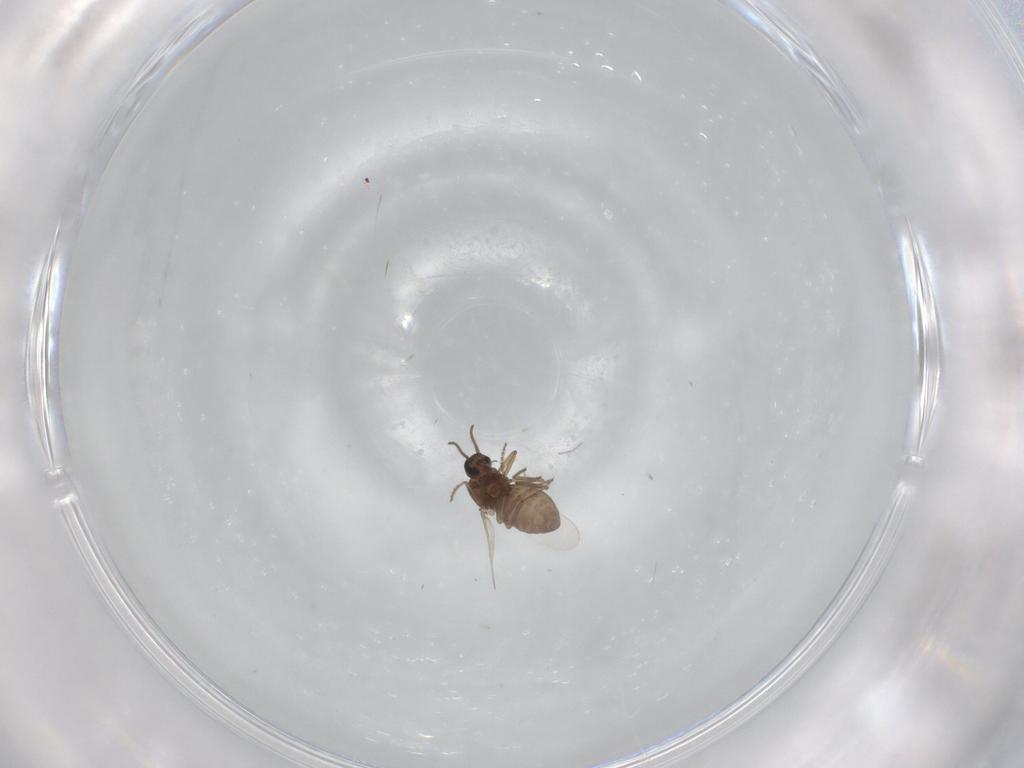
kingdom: Animalia
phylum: Arthropoda
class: Insecta
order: Diptera
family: Ceratopogonidae
